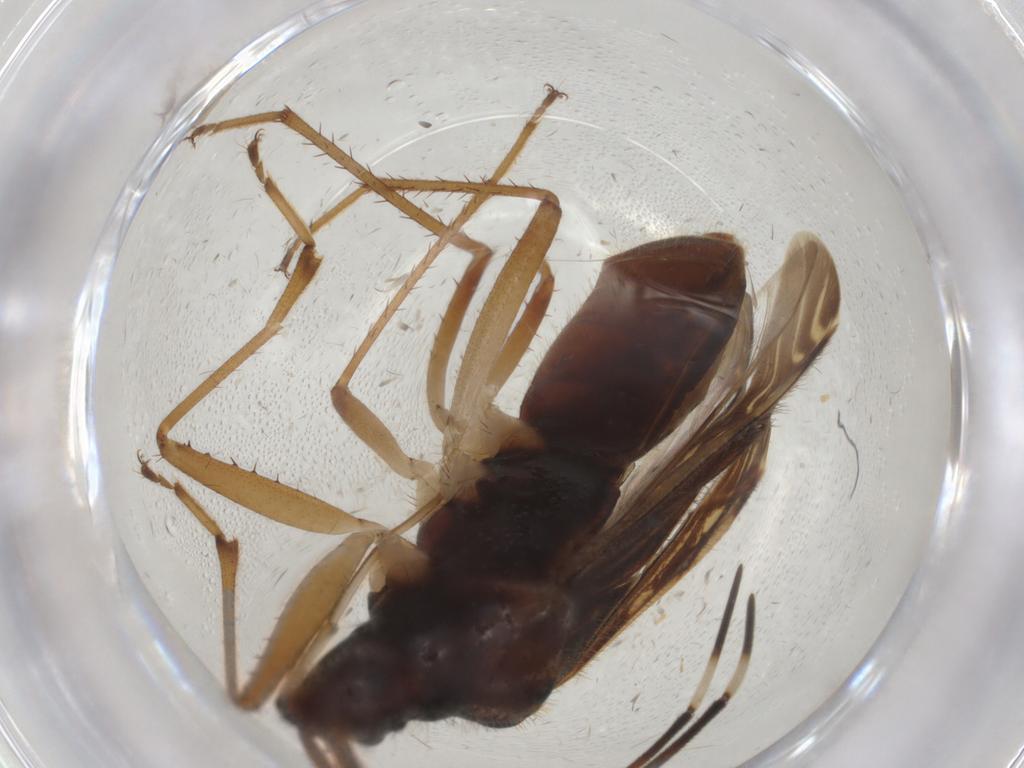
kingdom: Animalia
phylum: Arthropoda
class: Insecta
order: Hemiptera
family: Rhyparochromidae
